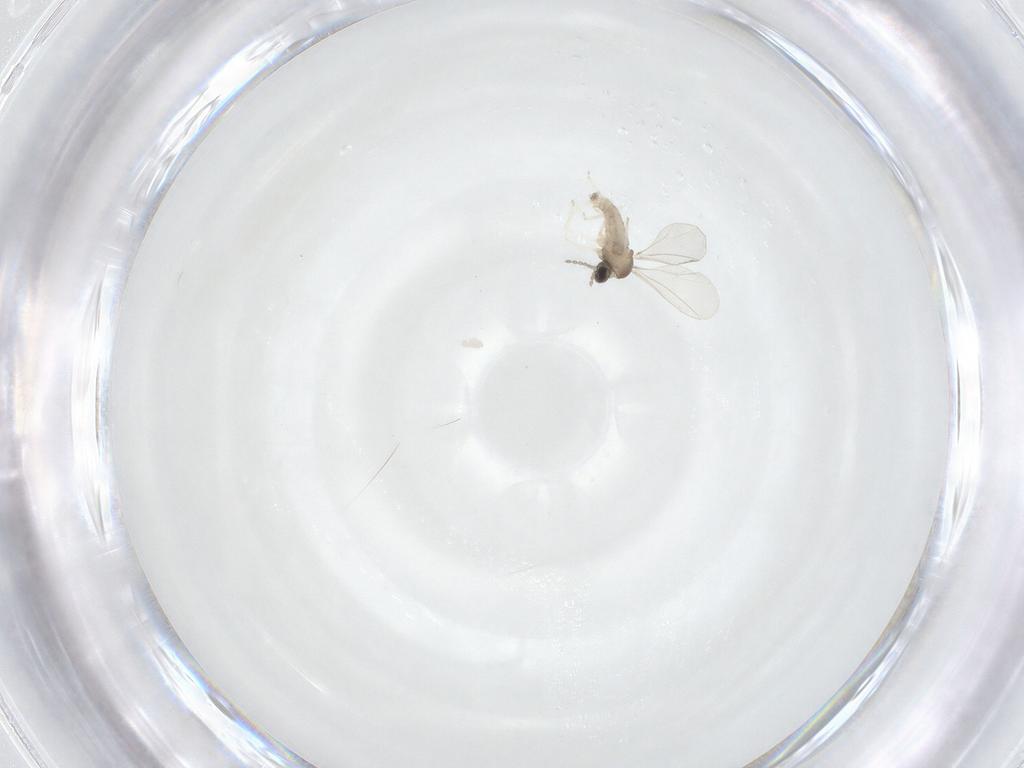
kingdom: Animalia
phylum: Arthropoda
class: Insecta
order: Diptera
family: Cecidomyiidae
